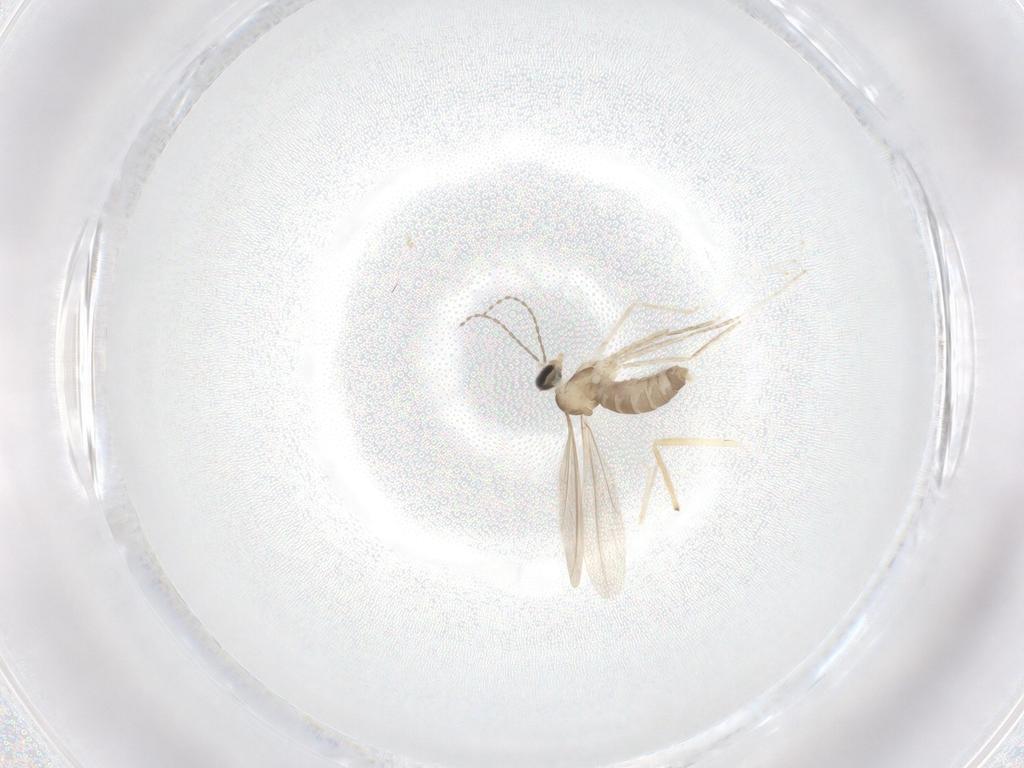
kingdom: Animalia
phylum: Arthropoda
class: Insecta
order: Diptera
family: Cecidomyiidae
